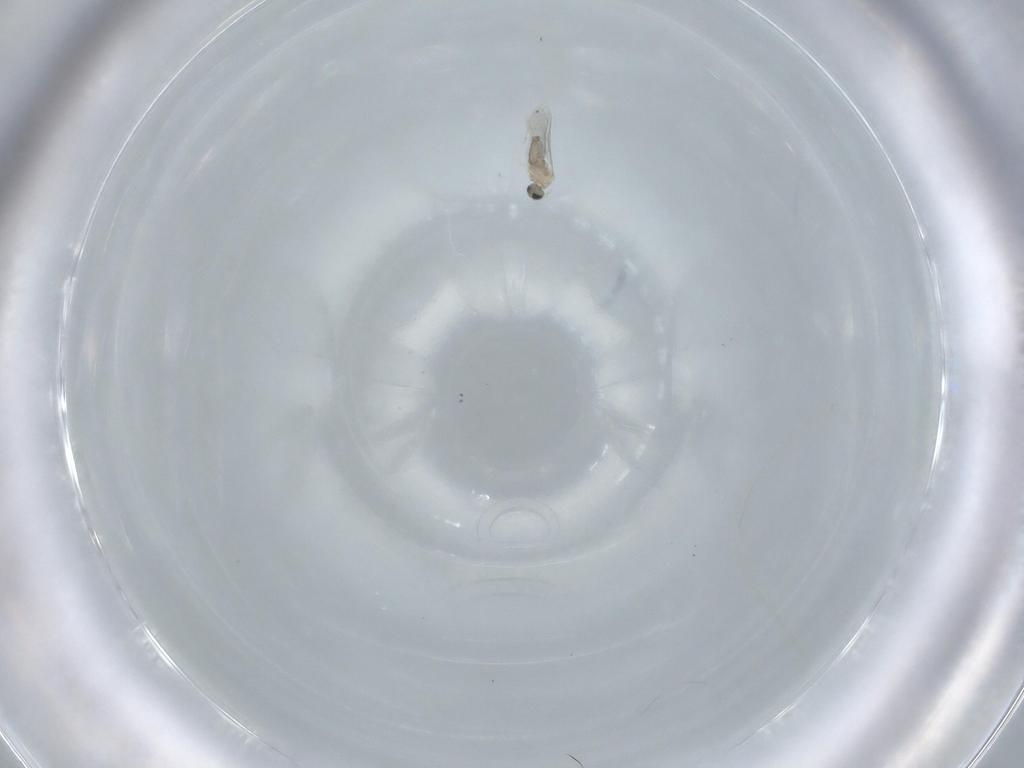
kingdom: Animalia
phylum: Arthropoda
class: Insecta
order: Diptera
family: Cecidomyiidae
